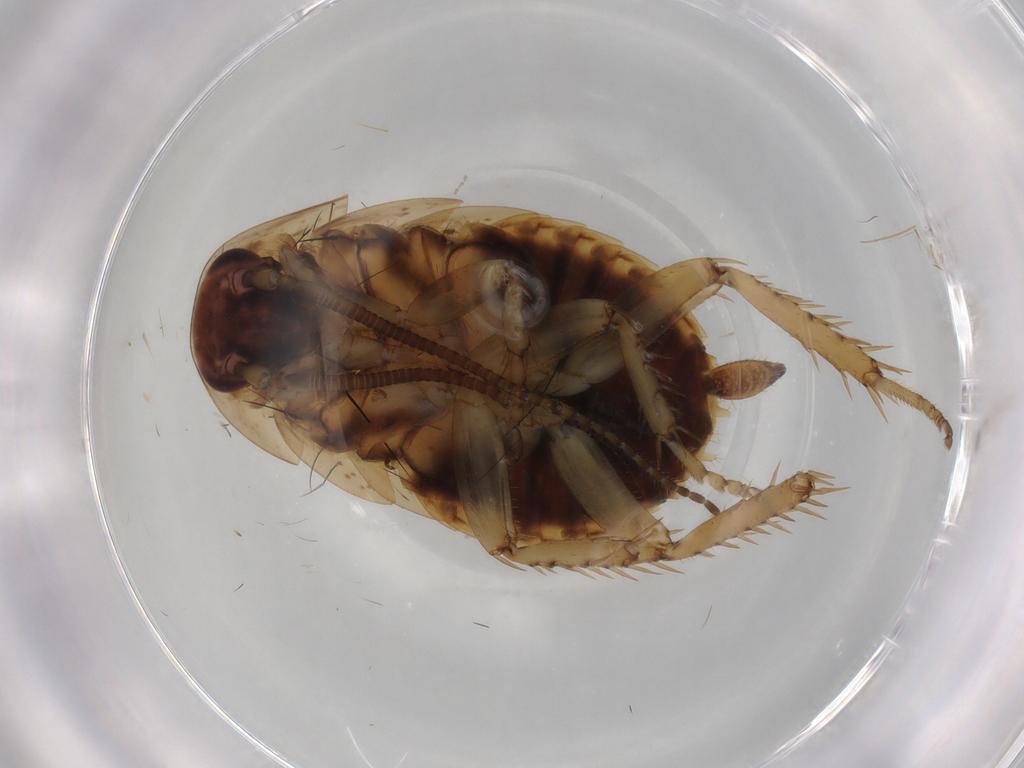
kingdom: Animalia
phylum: Arthropoda
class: Insecta
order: Blattodea
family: Ectobiidae
